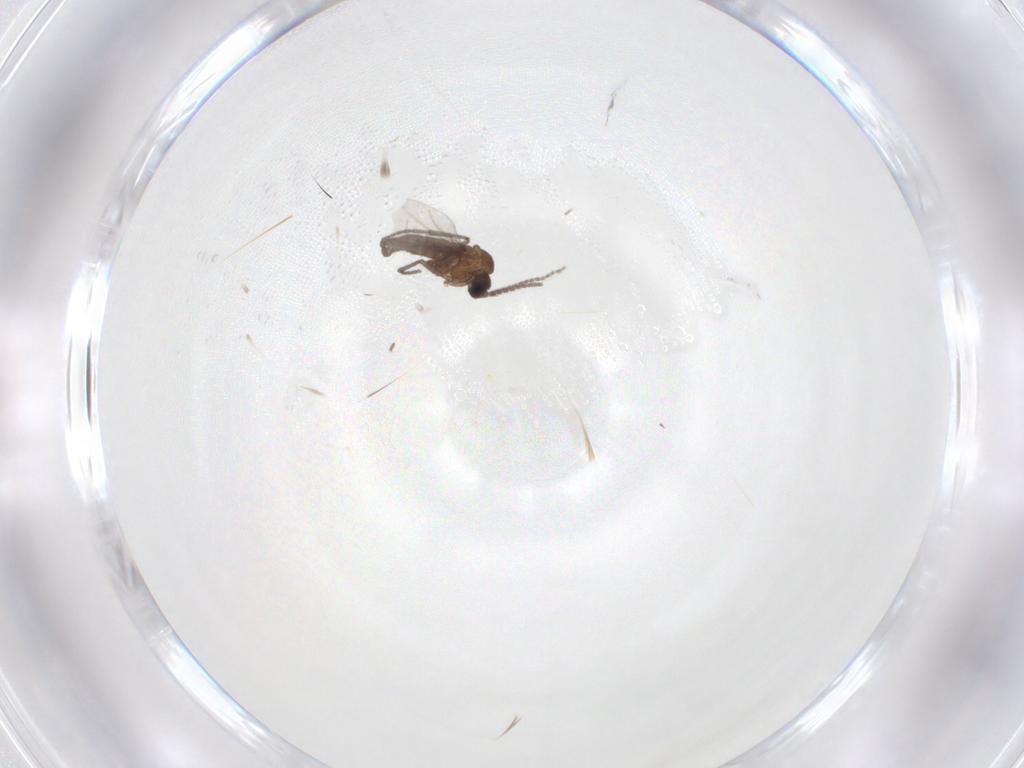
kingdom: Animalia
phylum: Arthropoda
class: Insecta
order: Diptera
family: Sciaridae
